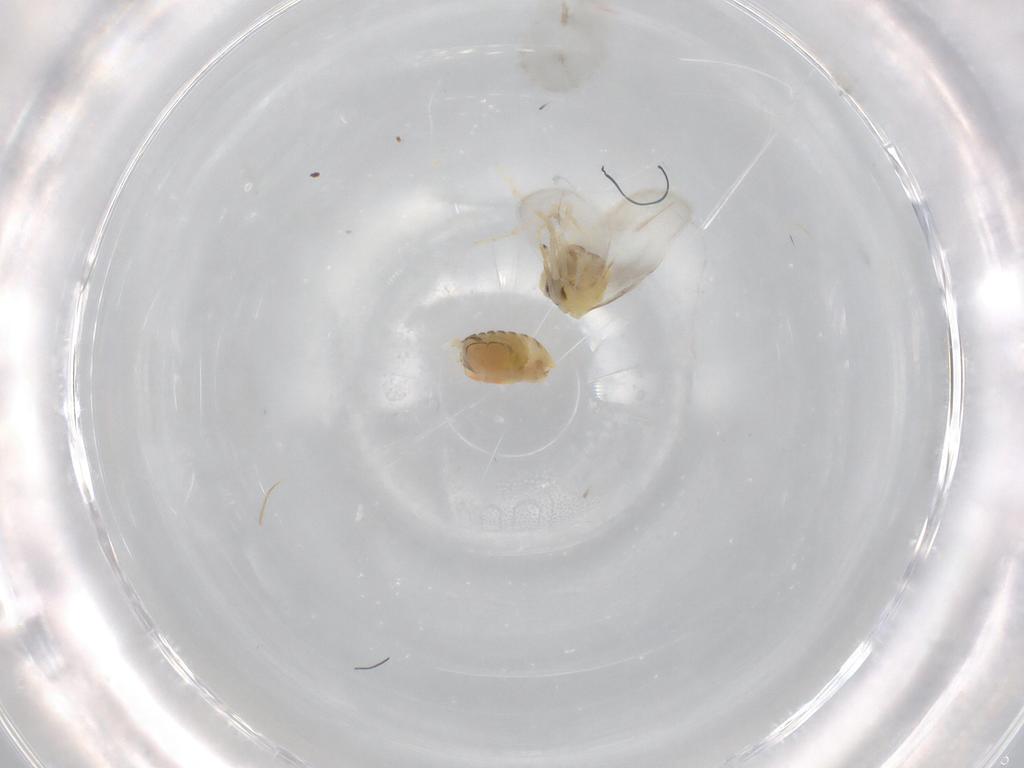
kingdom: Animalia
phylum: Arthropoda
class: Insecta
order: Hemiptera
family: Aleyrodidae
